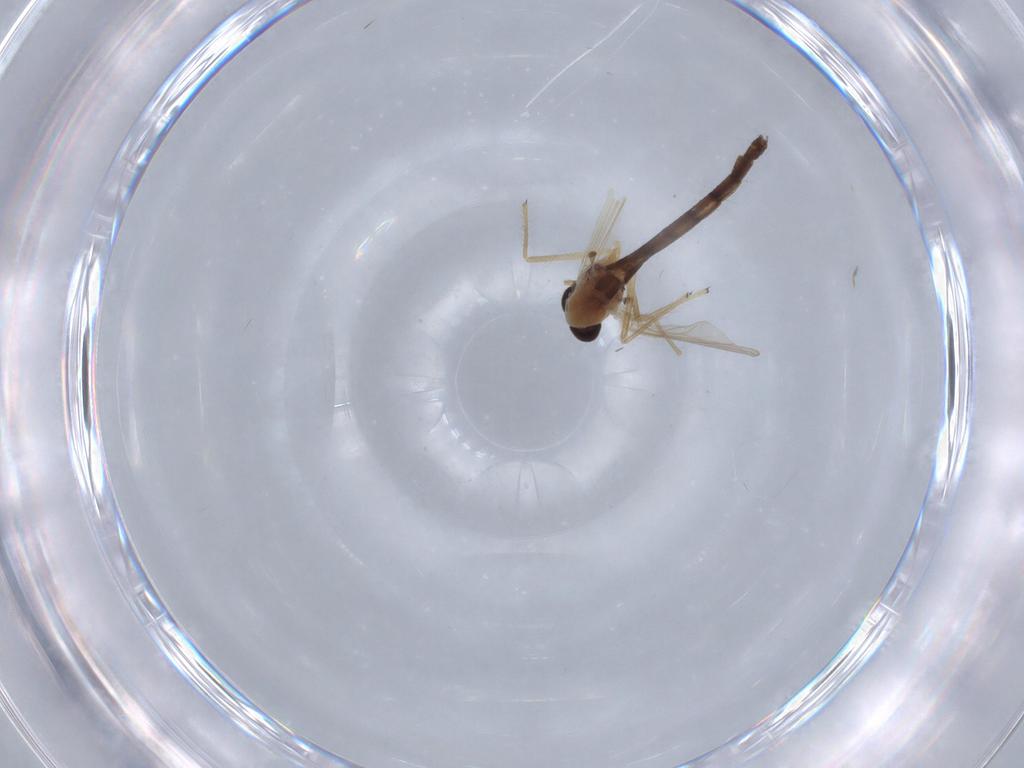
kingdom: Animalia
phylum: Arthropoda
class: Insecta
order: Diptera
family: Chironomidae
